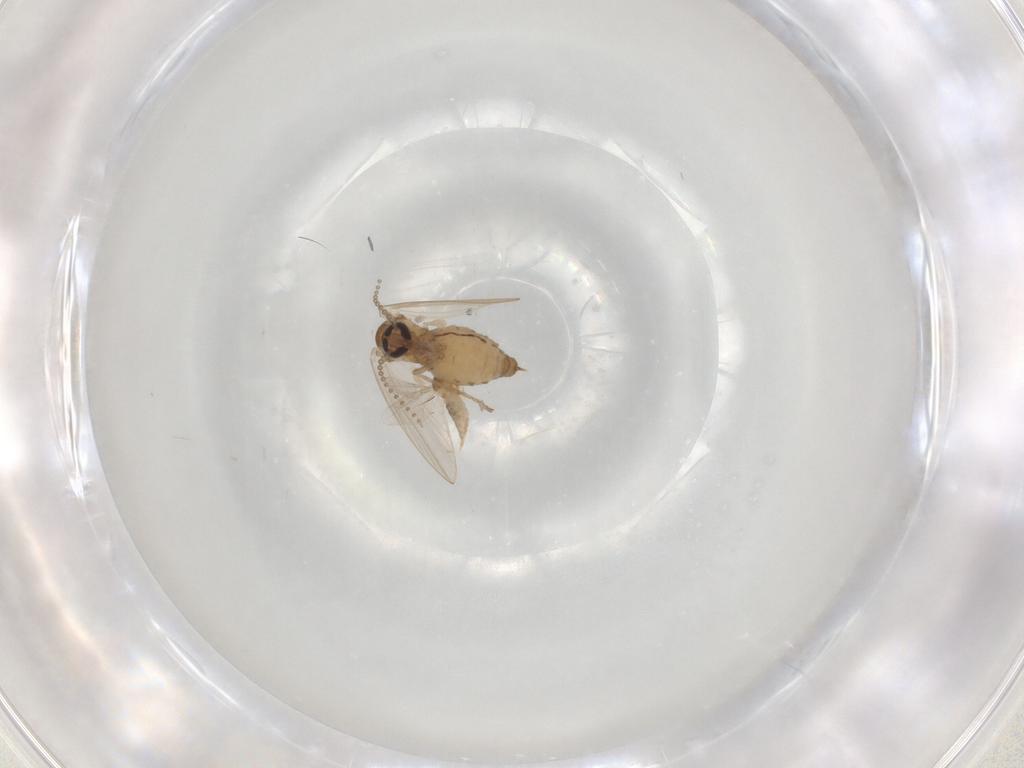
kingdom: Animalia
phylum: Arthropoda
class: Insecta
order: Diptera
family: Cecidomyiidae
